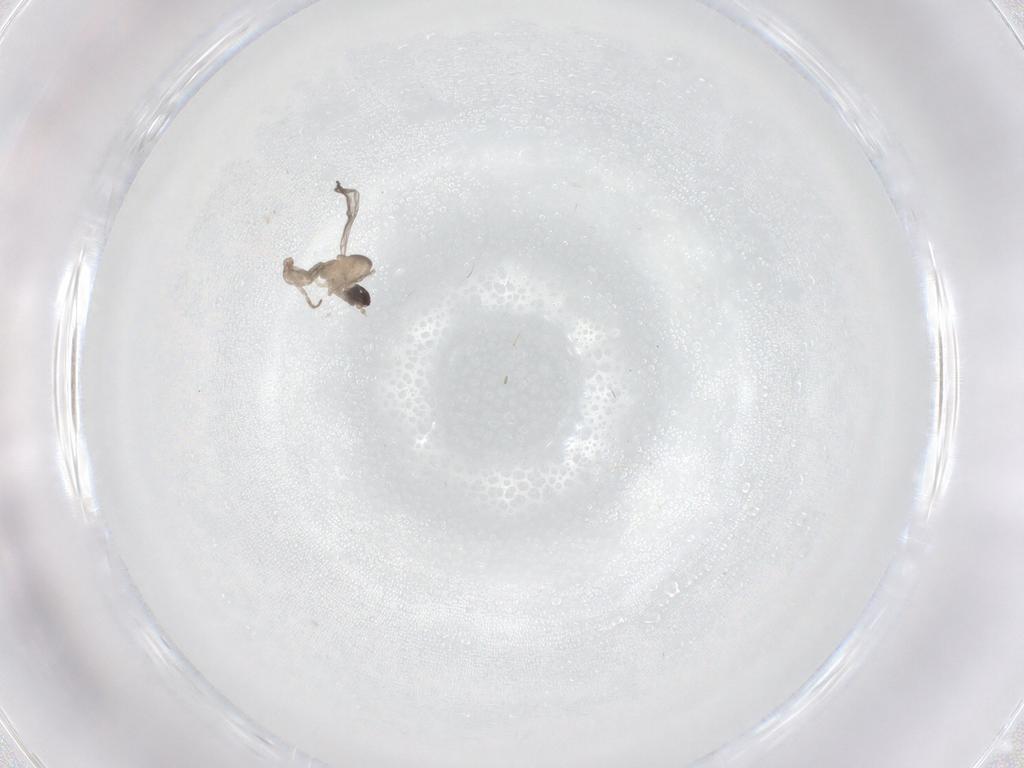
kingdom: Animalia
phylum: Arthropoda
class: Insecta
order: Diptera
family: Cecidomyiidae
